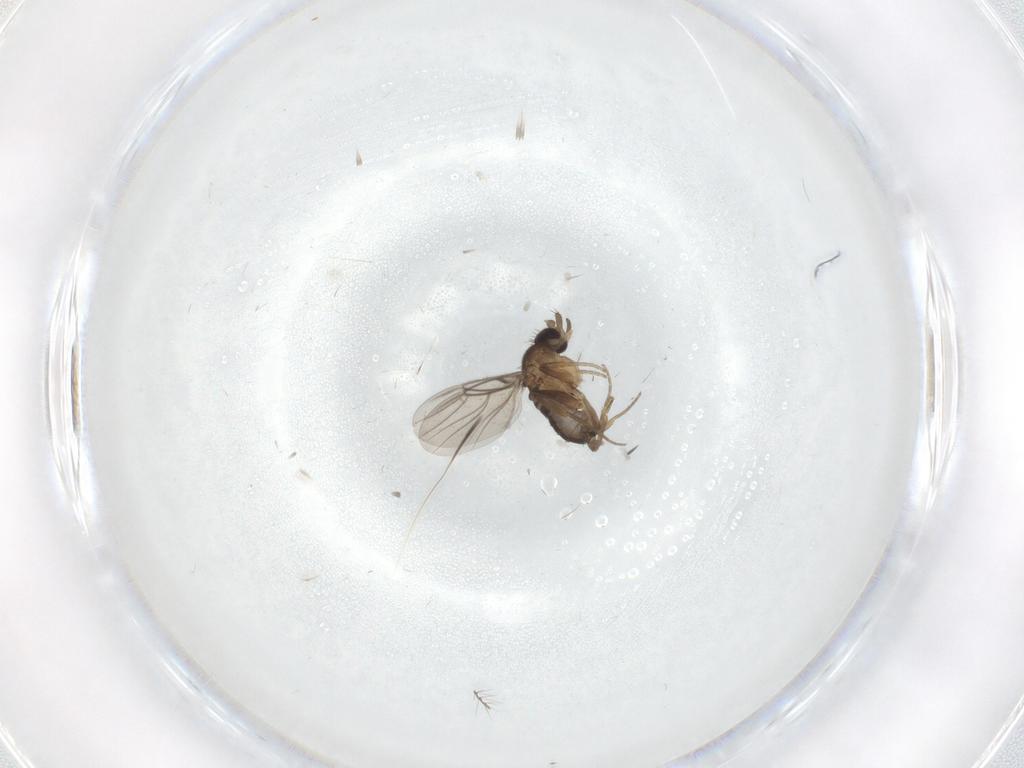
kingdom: Animalia
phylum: Arthropoda
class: Insecta
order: Diptera
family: Phoridae
